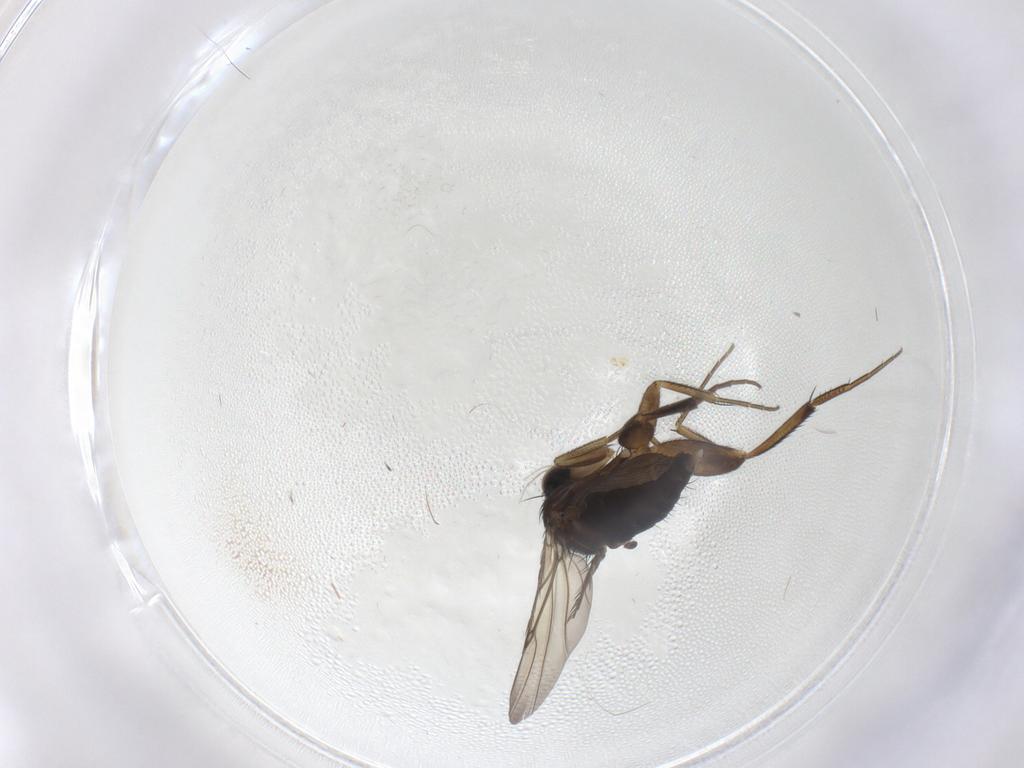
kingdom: Animalia
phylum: Arthropoda
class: Insecta
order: Diptera
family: Phoridae
